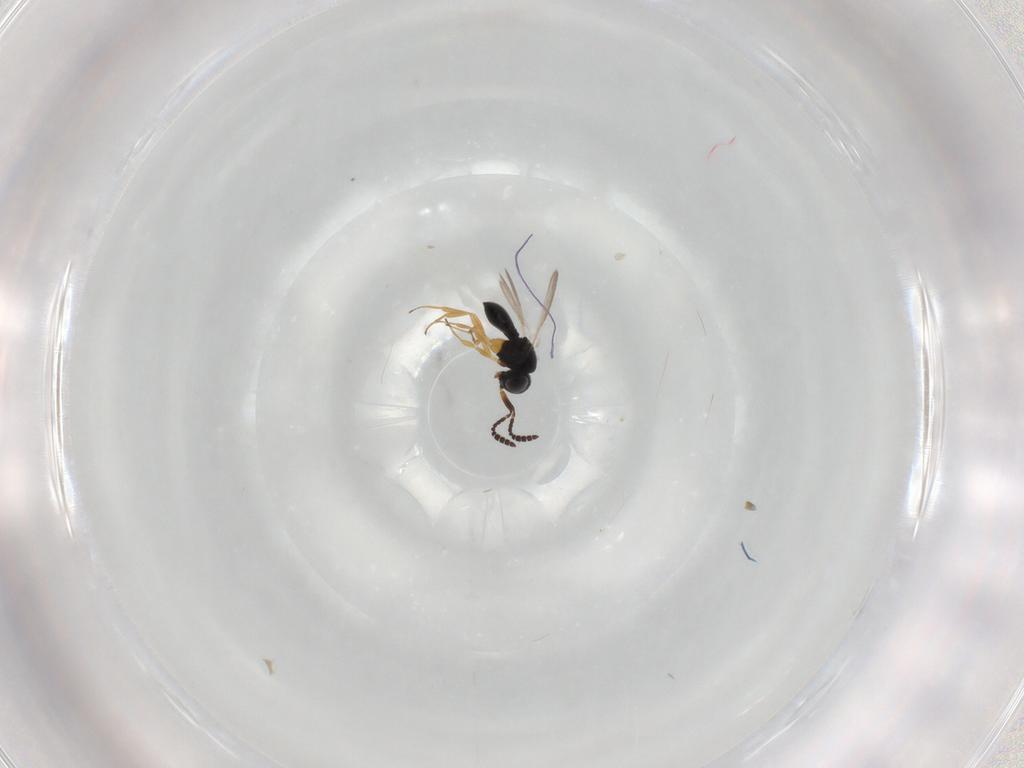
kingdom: Animalia
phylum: Arthropoda
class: Insecta
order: Hymenoptera
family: Scelionidae
